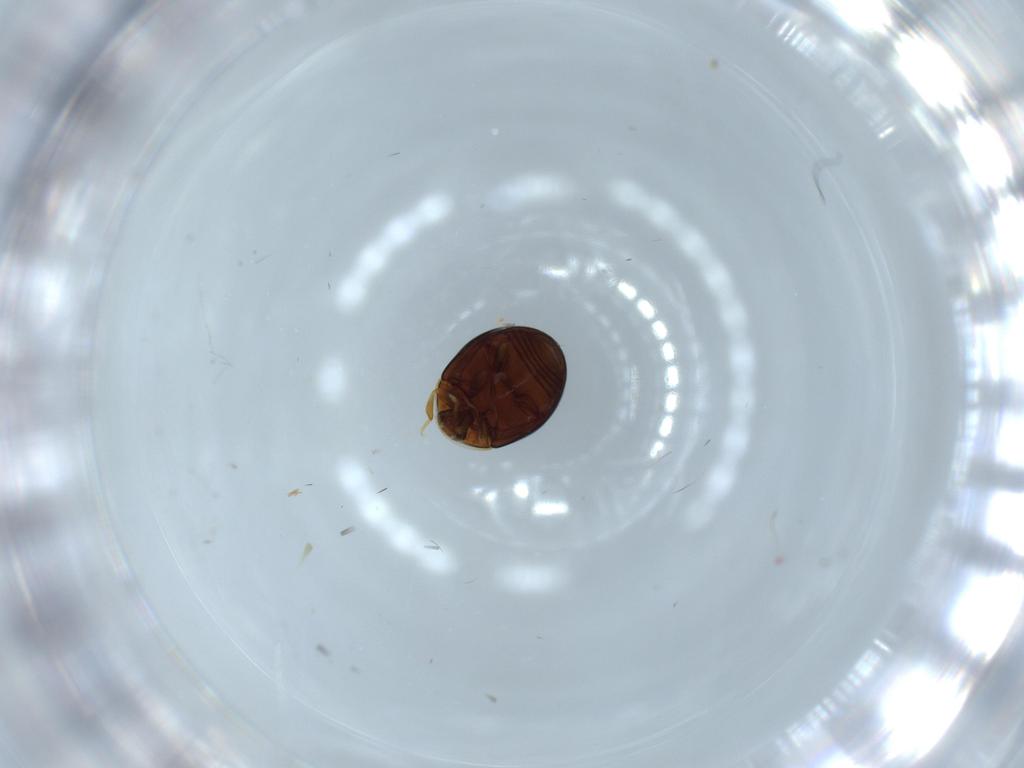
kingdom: Animalia
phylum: Arthropoda
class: Insecta
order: Coleoptera
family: Corylophidae
